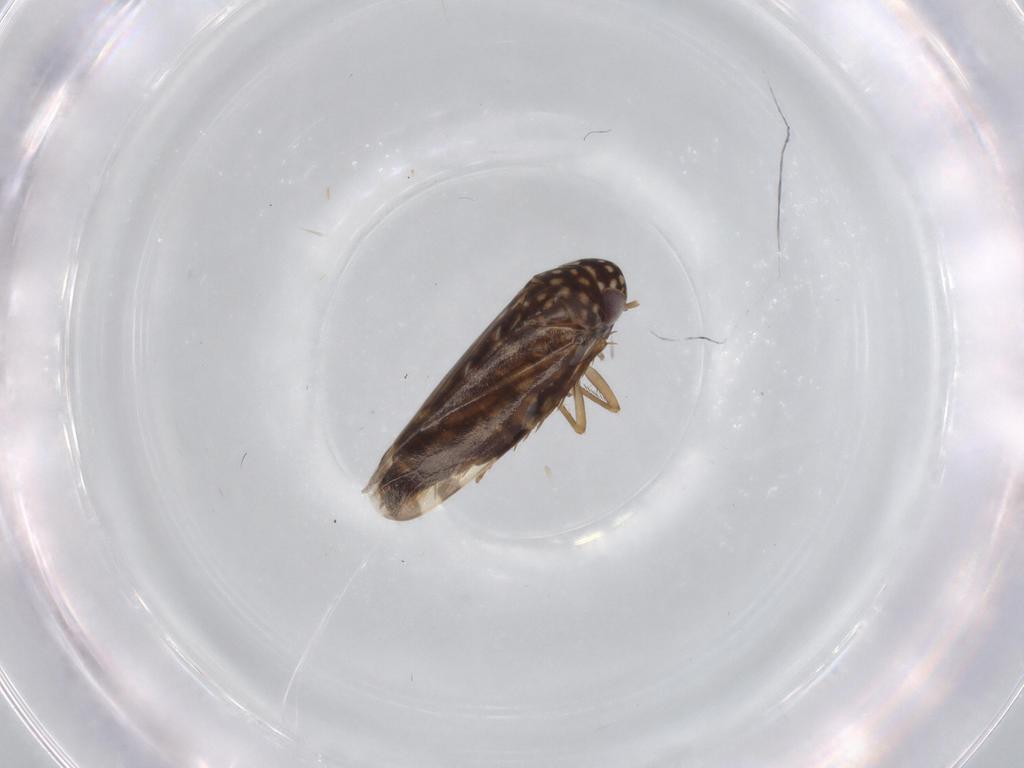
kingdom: Animalia
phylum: Arthropoda
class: Insecta
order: Hemiptera
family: Cicadellidae
